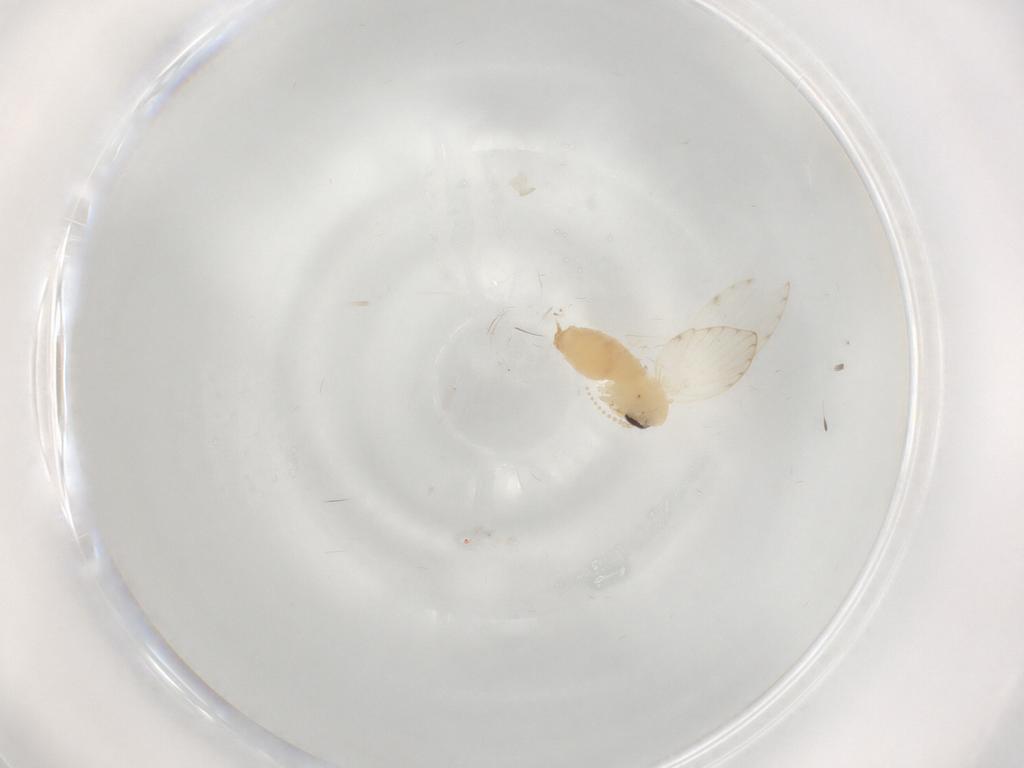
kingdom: Animalia
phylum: Arthropoda
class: Insecta
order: Diptera
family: Psychodidae
